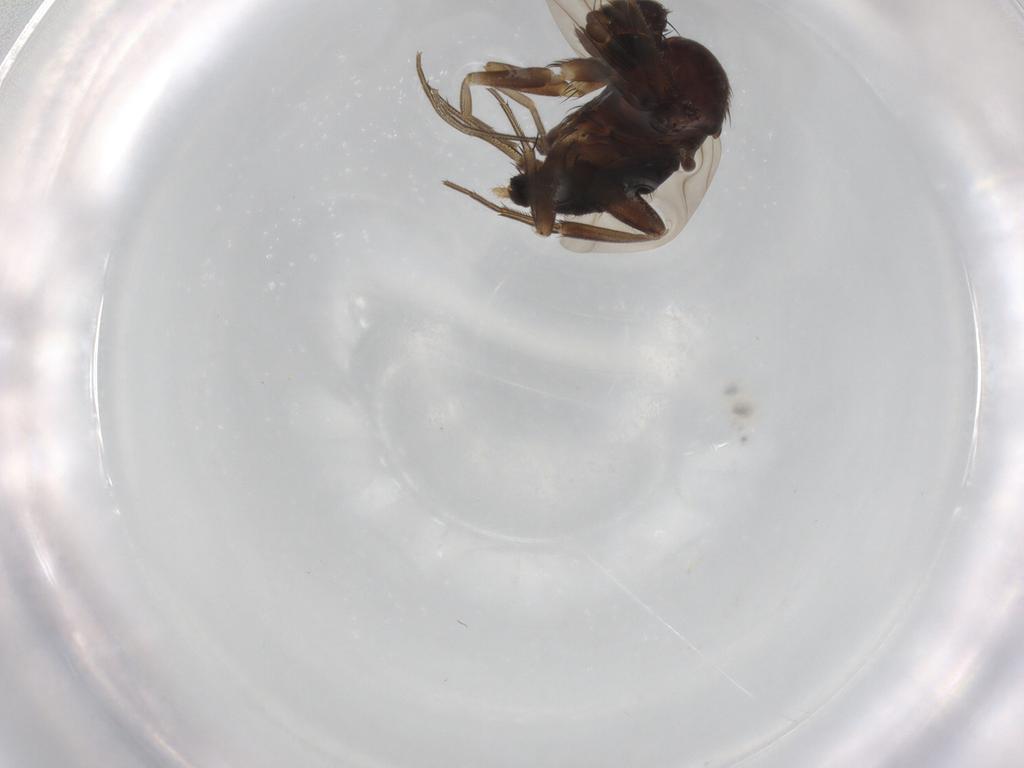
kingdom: Animalia
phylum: Arthropoda
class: Insecta
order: Diptera
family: Phoridae
